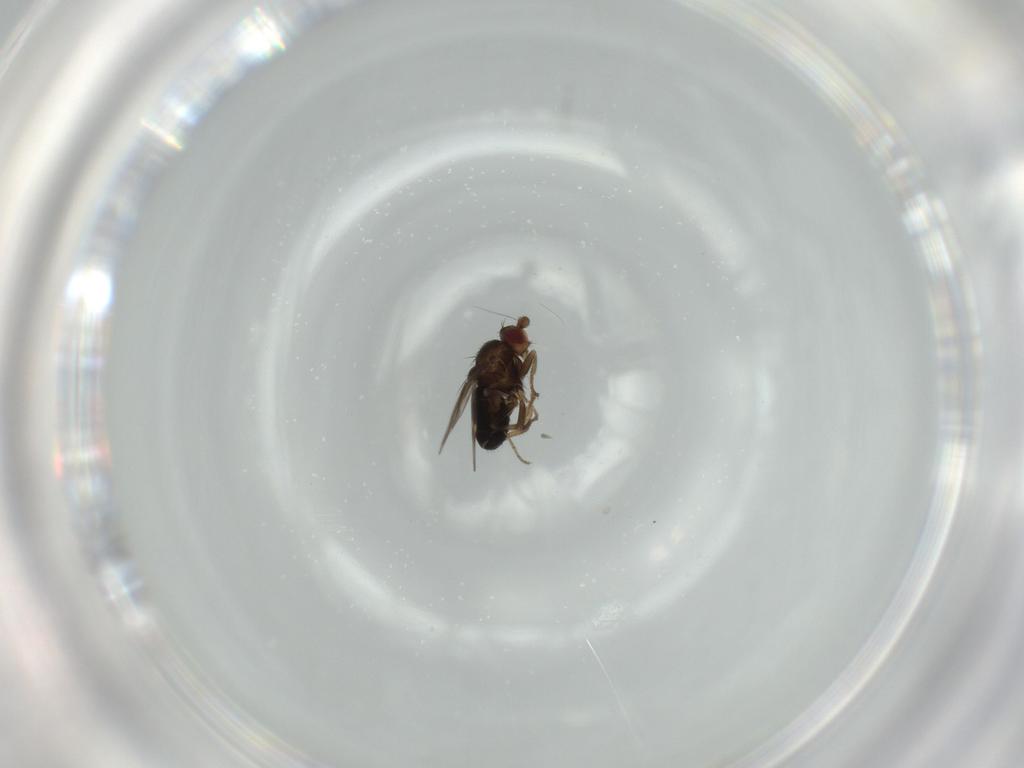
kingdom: Animalia
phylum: Arthropoda
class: Insecta
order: Diptera
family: Sphaeroceridae
